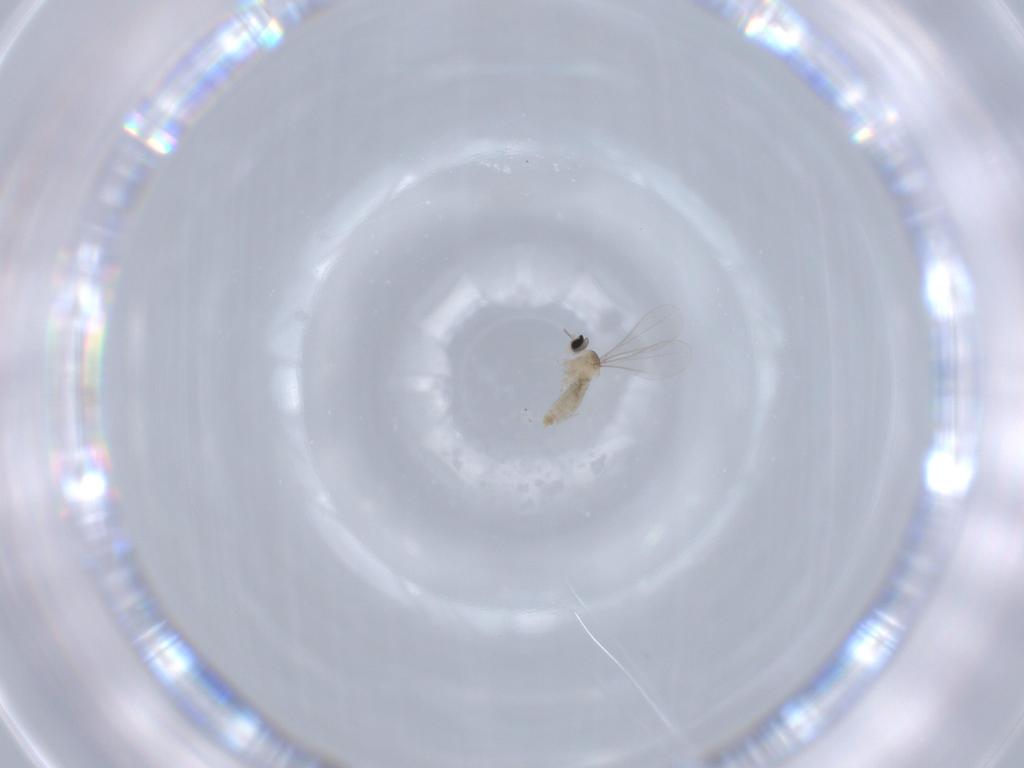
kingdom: Animalia
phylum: Arthropoda
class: Insecta
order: Diptera
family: Cecidomyiidae
